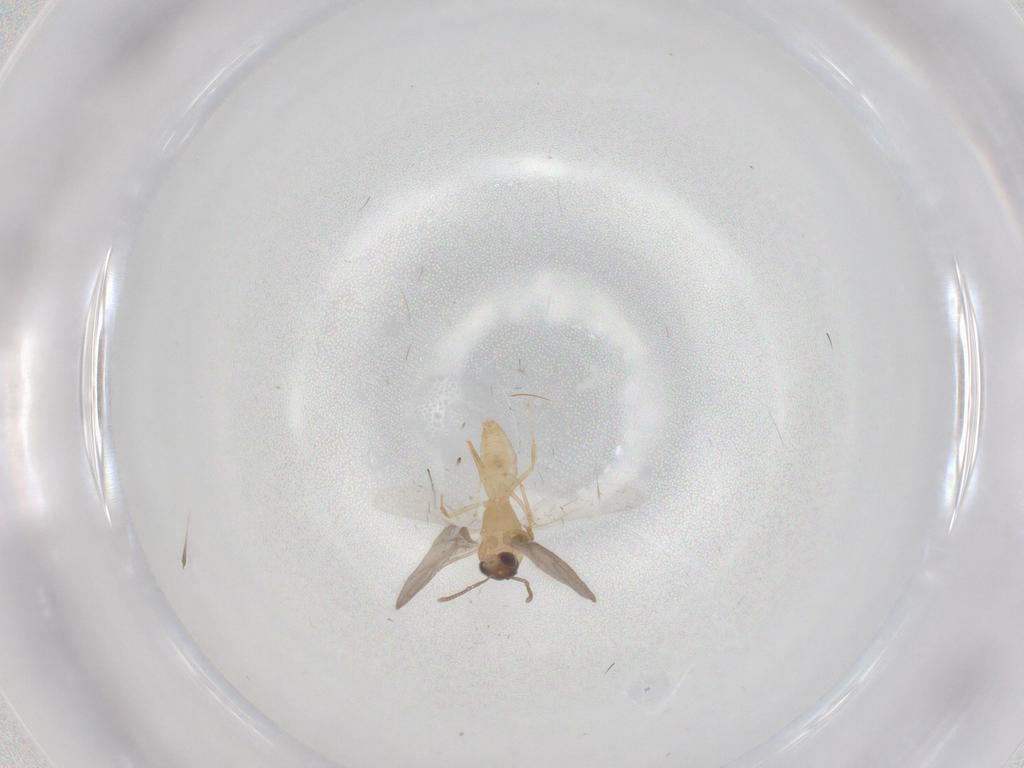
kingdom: Animalia
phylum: Arthropoda
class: Insecta
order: Hymenoptera
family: Formicidae
